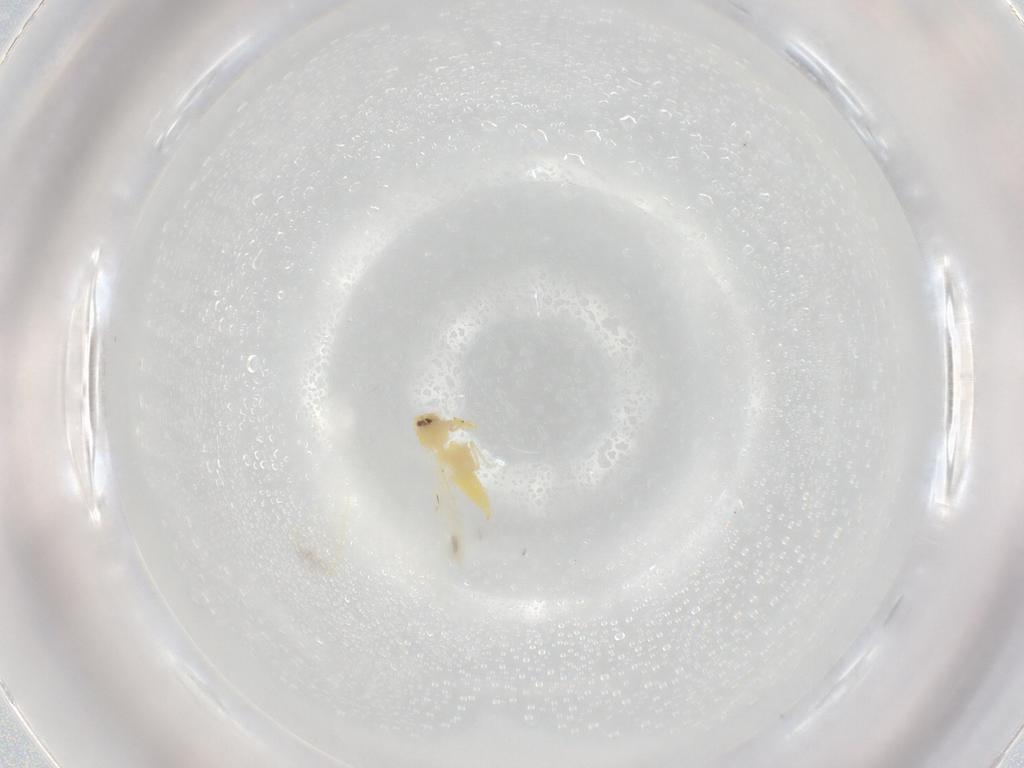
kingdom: Animalia
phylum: Arthropoda
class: Insecta
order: Hemiptera
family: Aleyrodidae
